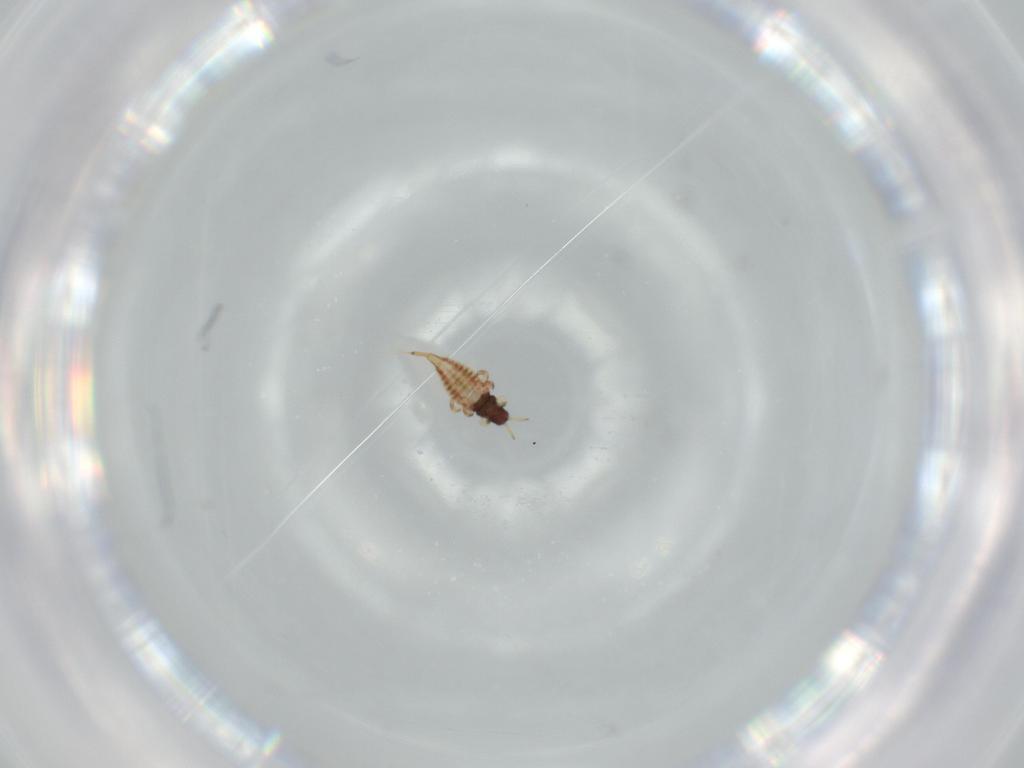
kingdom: Animalia
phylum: Arthropoda
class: Insecta
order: Thysanoptera
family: Phlaeothripidae
